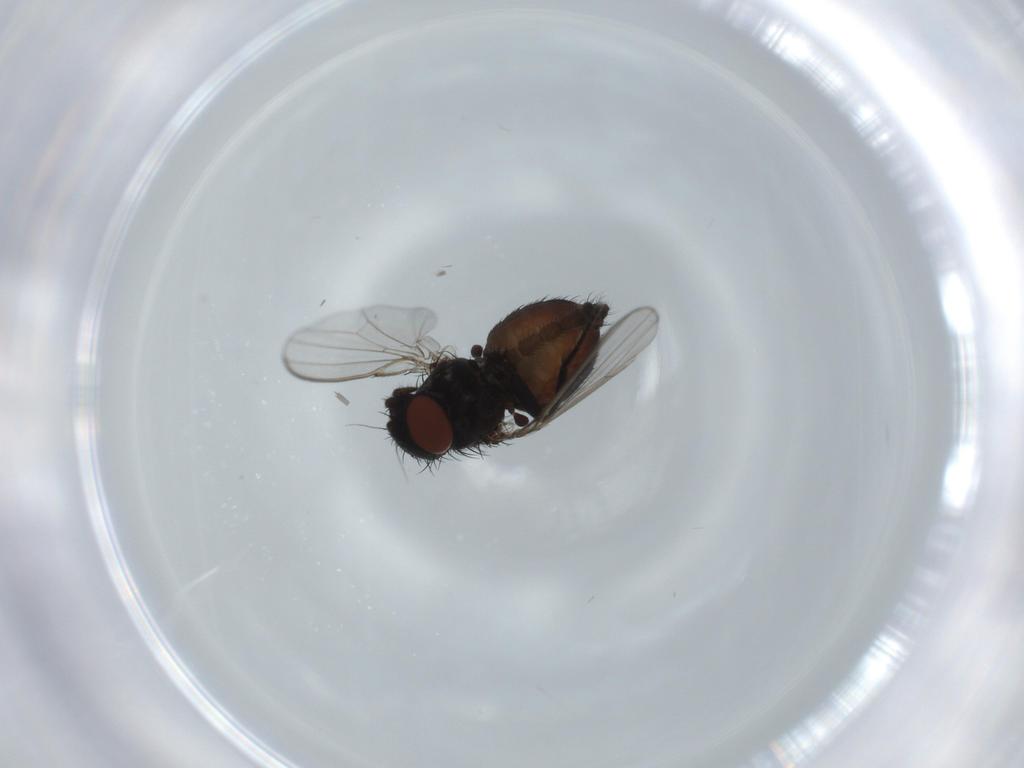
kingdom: Animalia
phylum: Arthropoda
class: Insecta
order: Diptera
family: Milichiidae
